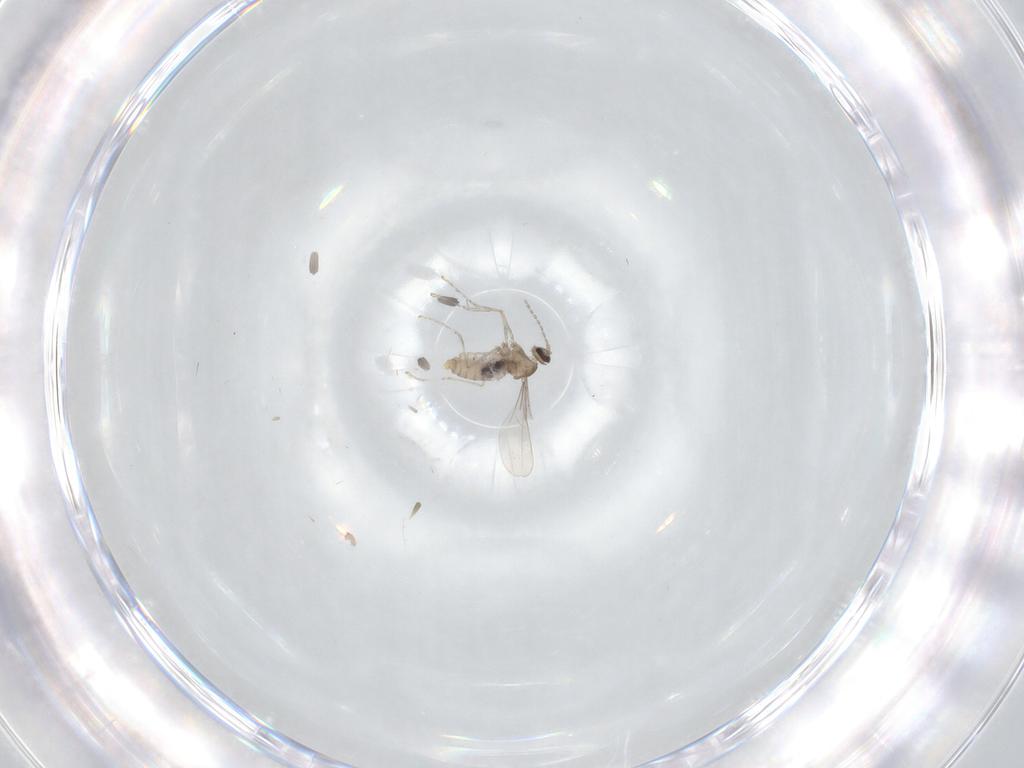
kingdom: Animalia
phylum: Arthropoda
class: Insecta
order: Diptera
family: Cecidomyiidae
